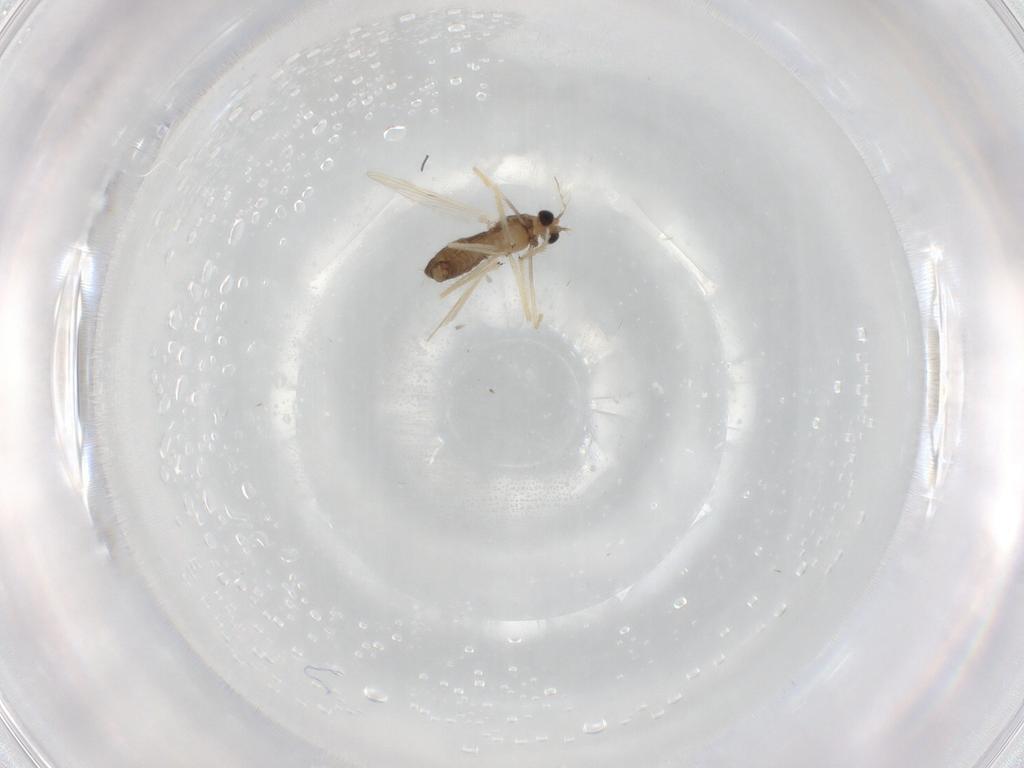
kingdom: Animalia
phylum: Arthropoda
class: Insecta
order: Diptera
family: Chironomidae
